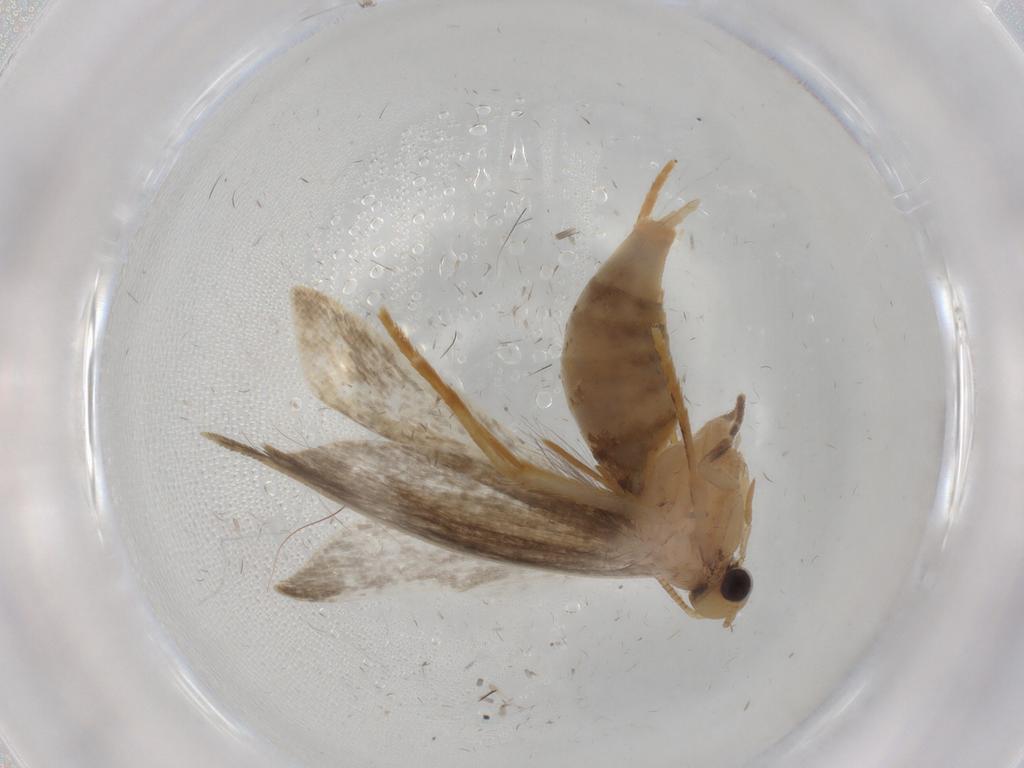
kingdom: Animalia
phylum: Arthropoda
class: Insecta
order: Lepidoptera
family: Tineidae
